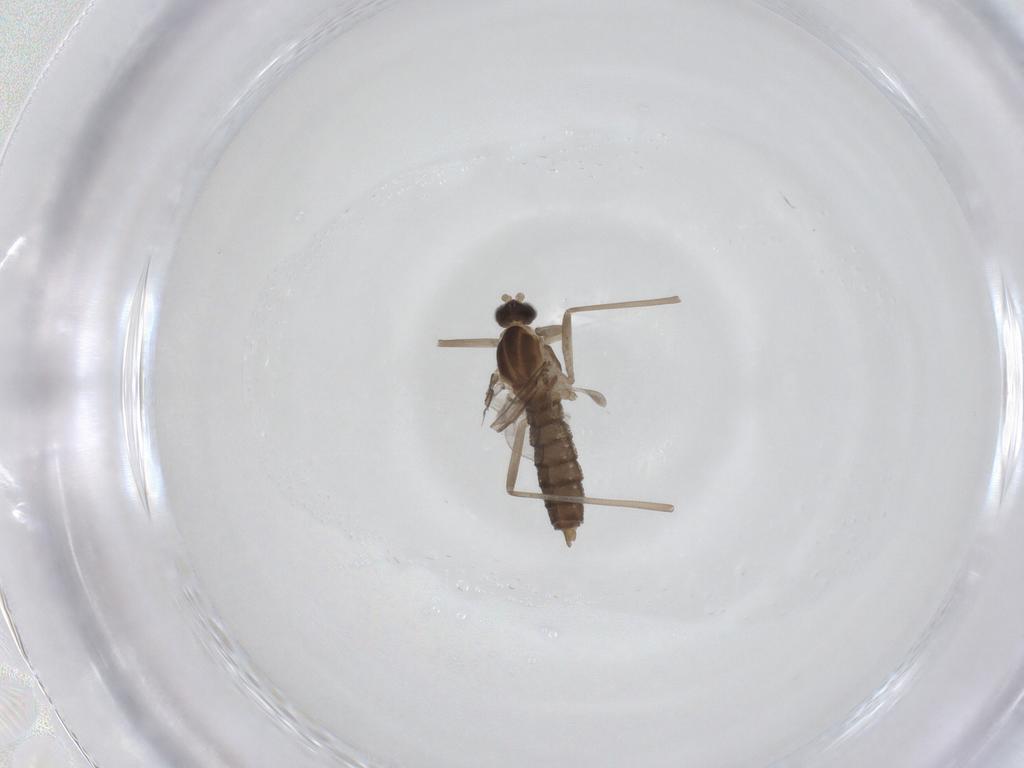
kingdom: Animalia
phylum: Arthropoda
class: Insecta
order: Diptera
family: Cecidomyiidae
